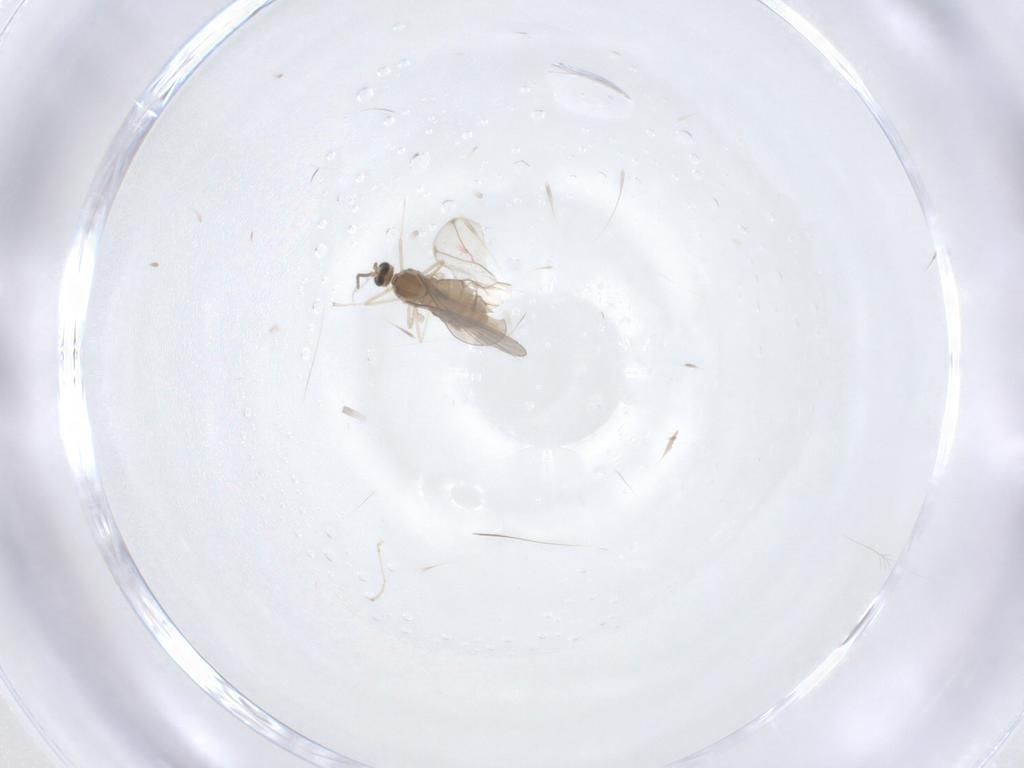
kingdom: Animalia
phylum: Arthropoda
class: Insecta
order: Diptera
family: Cecidomyiidae
